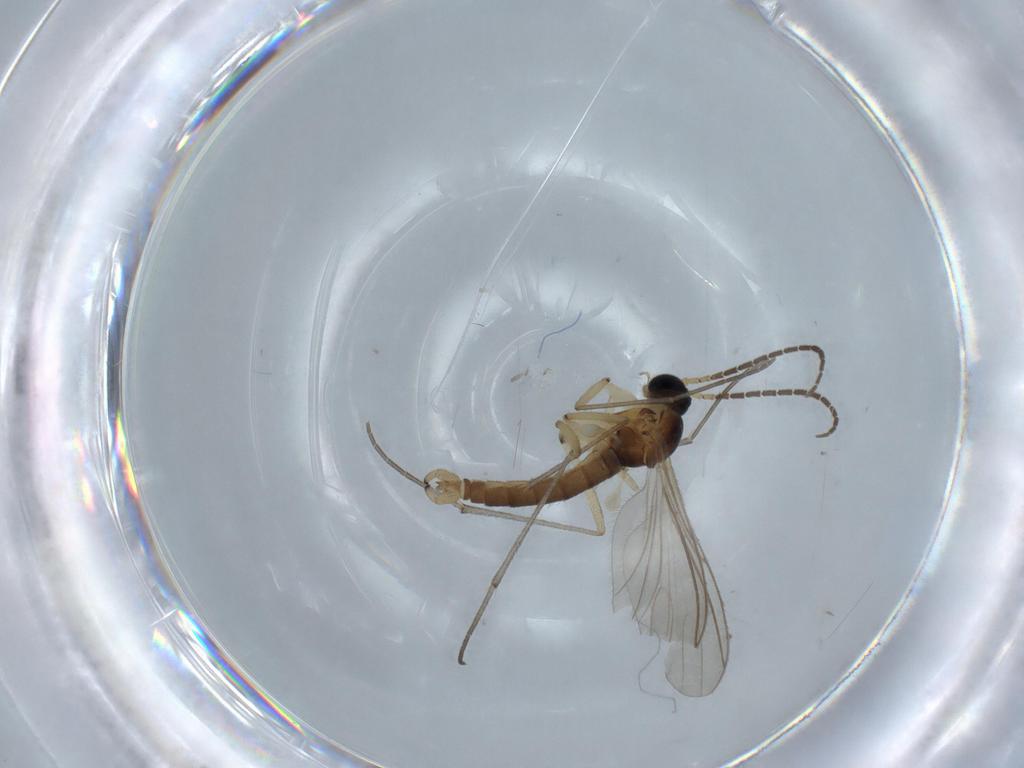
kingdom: Animalia
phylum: Arthropoda
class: Insecta
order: Diptera
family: Sciaridae
